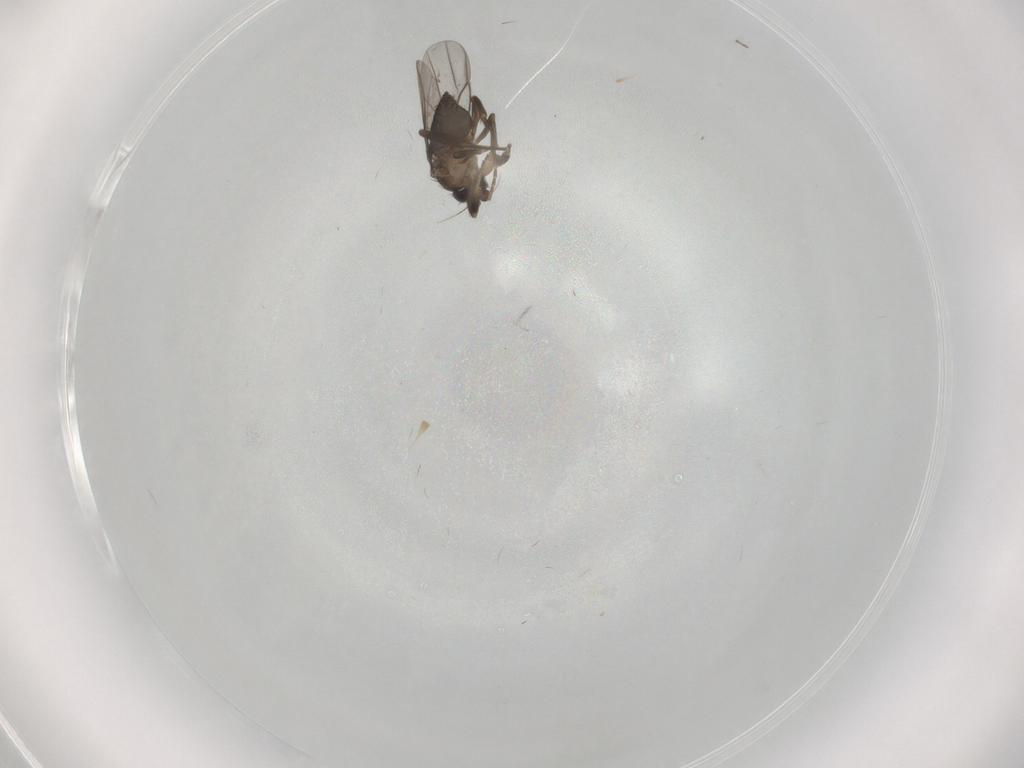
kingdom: Animalia
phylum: Arthropoda
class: Insecta
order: Diptera
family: Sciaridae
